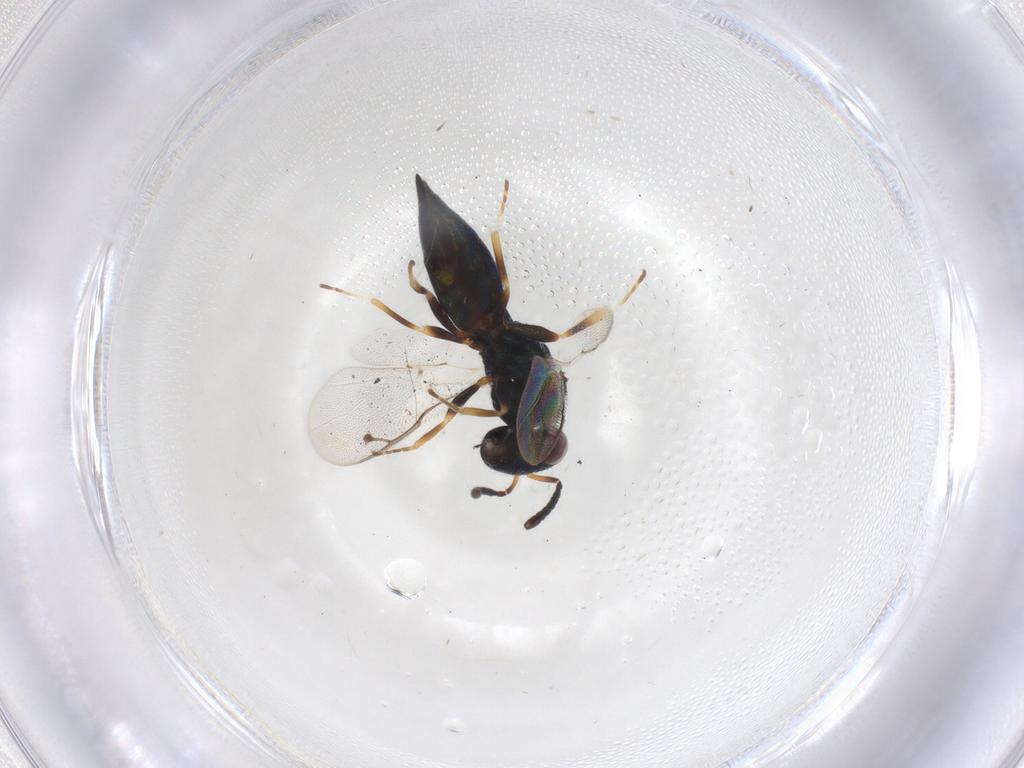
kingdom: Animalia
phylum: Arthropoda
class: Insecta
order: Hymenoptera
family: Pteromalidae
